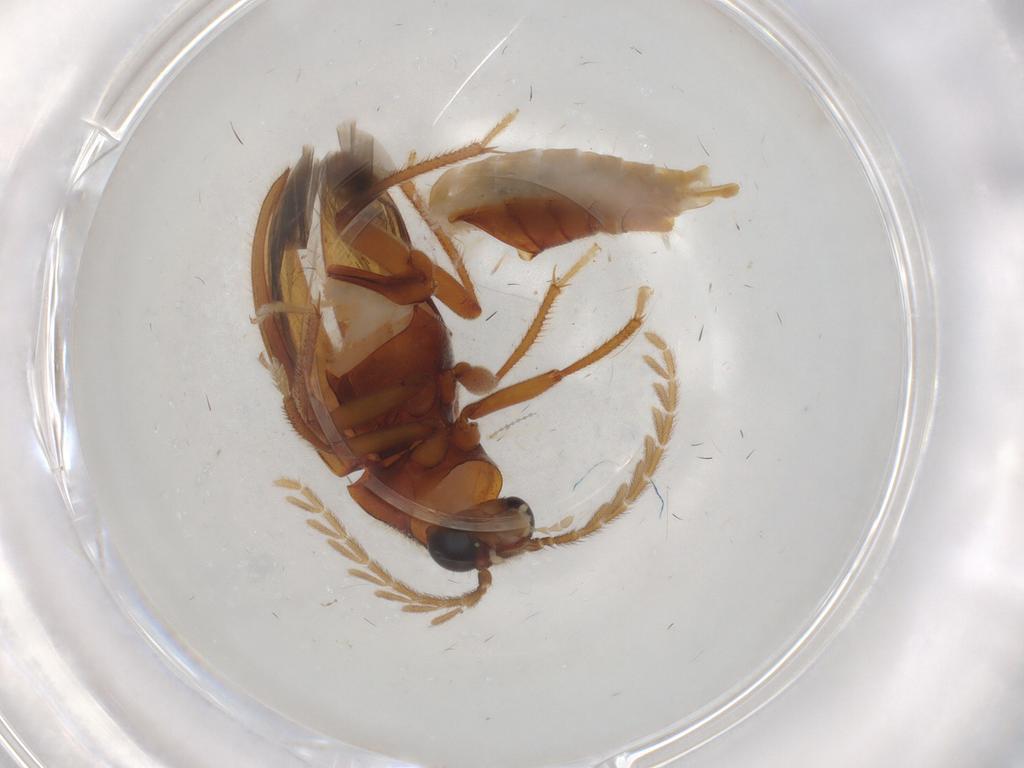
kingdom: Animalia
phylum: Arthropoda
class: Insecta
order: Coleoptera
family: Ptilodactylidae
